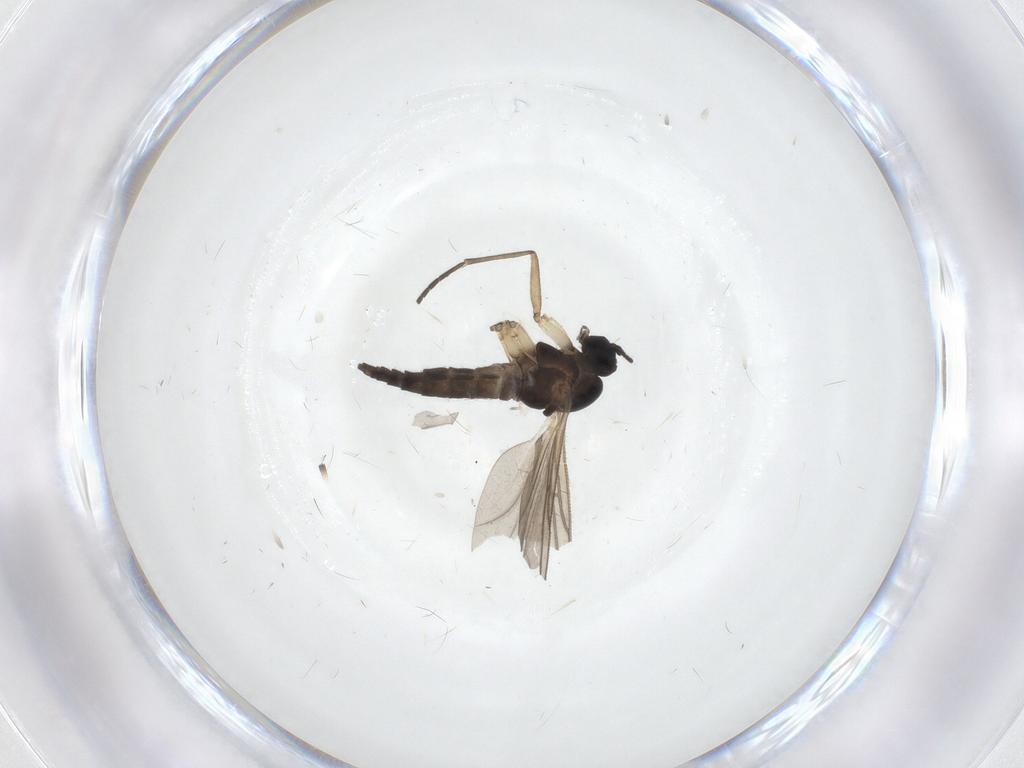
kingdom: Animalia
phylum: Arthropoda
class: Insecta
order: Diptera
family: Sciaridae
